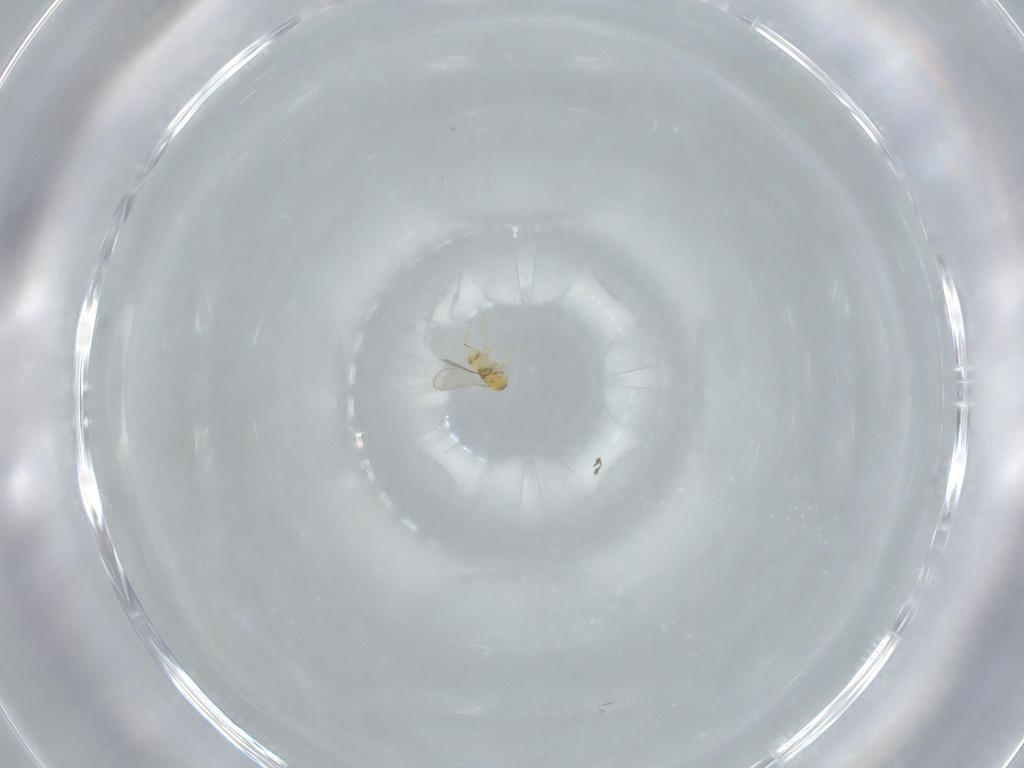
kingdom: Animalia
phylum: Arthropoda
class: Insecta
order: Hymenoptera
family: Aphelinidae
